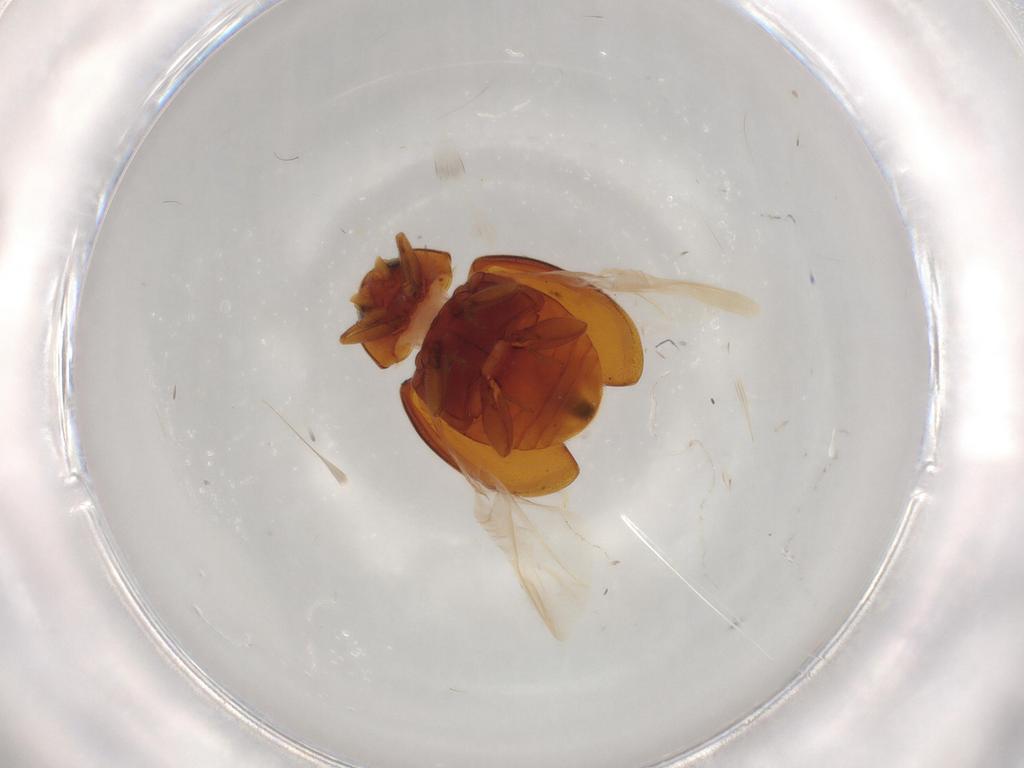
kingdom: Animalia
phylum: Arthropoda
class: Insecta
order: Coleoptera
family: Coccinellidae
